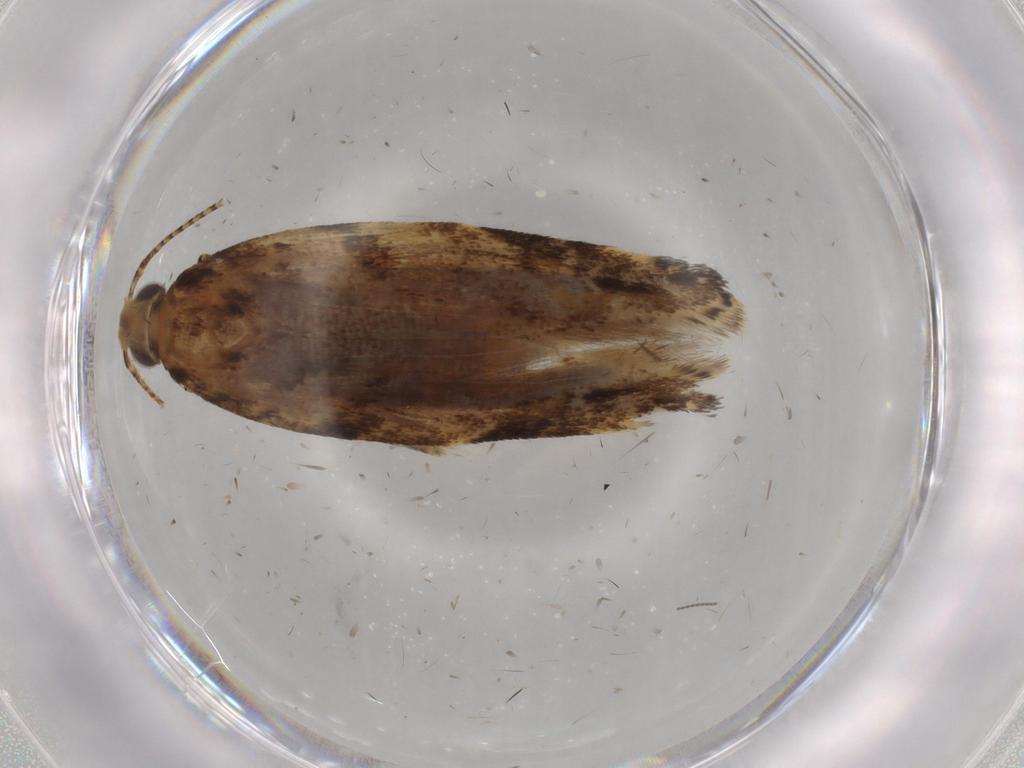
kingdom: Animalia
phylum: Arthropoda
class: Insecta
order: Lepidoptera
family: Gelechiidae
